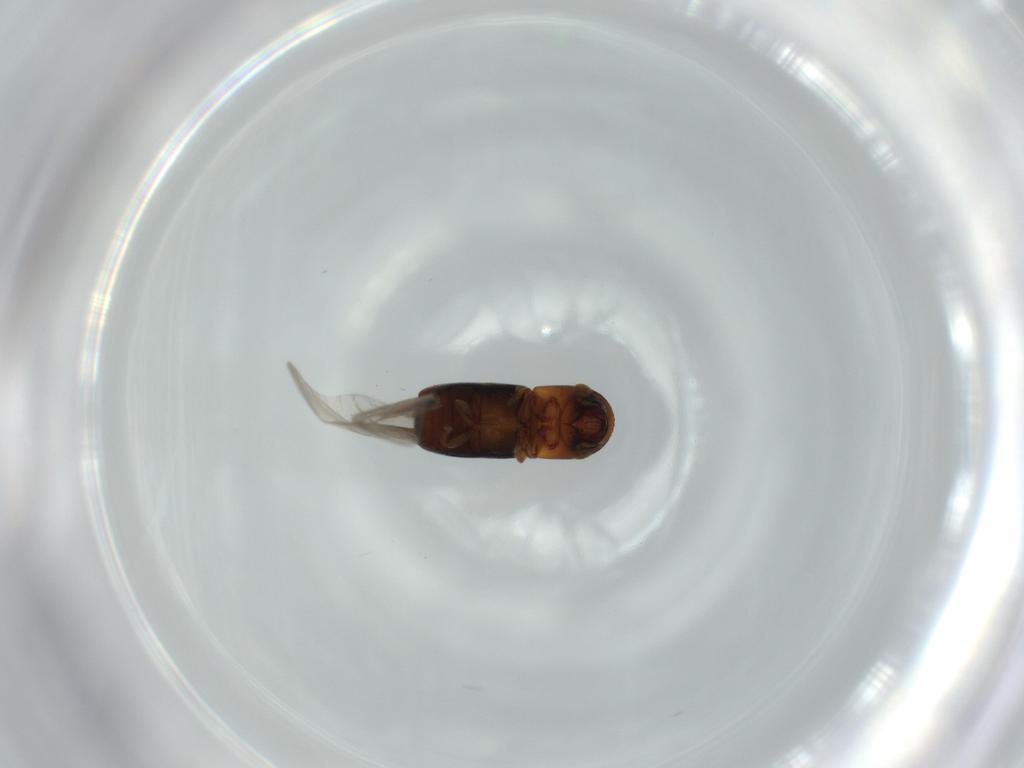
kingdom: Animalia
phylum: Arthropoda
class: Insecta
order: Coleoptera
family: Curculionidae
